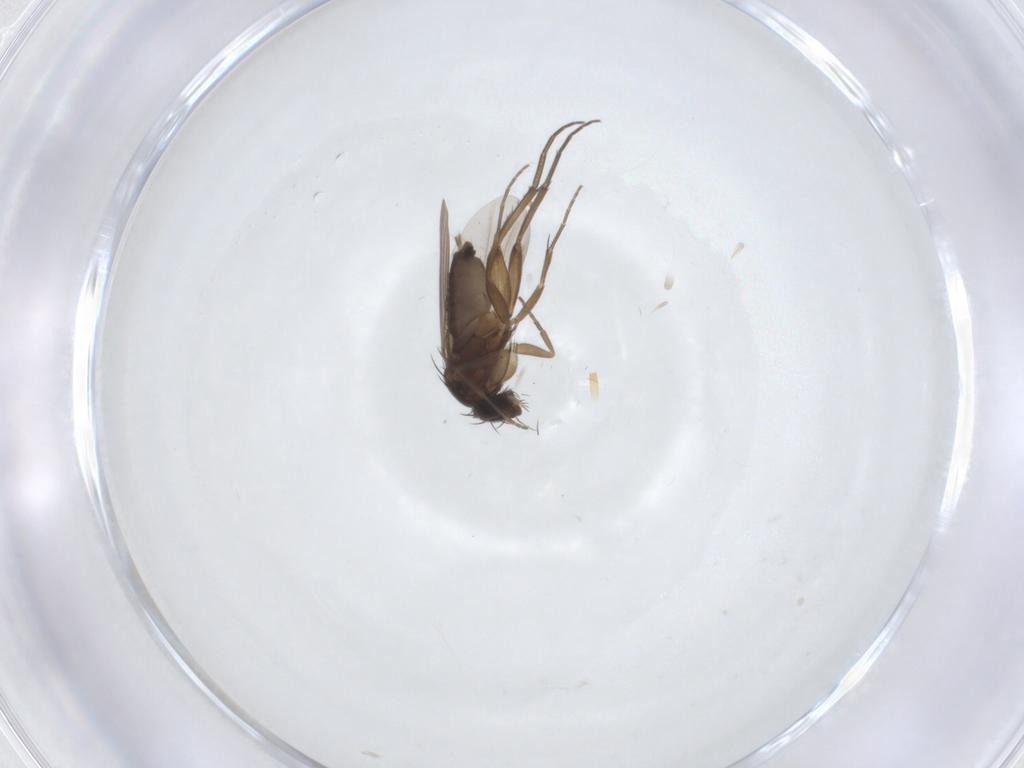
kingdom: Animalia
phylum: Arthropoda
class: Insecta
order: Diptera
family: Phoridae
